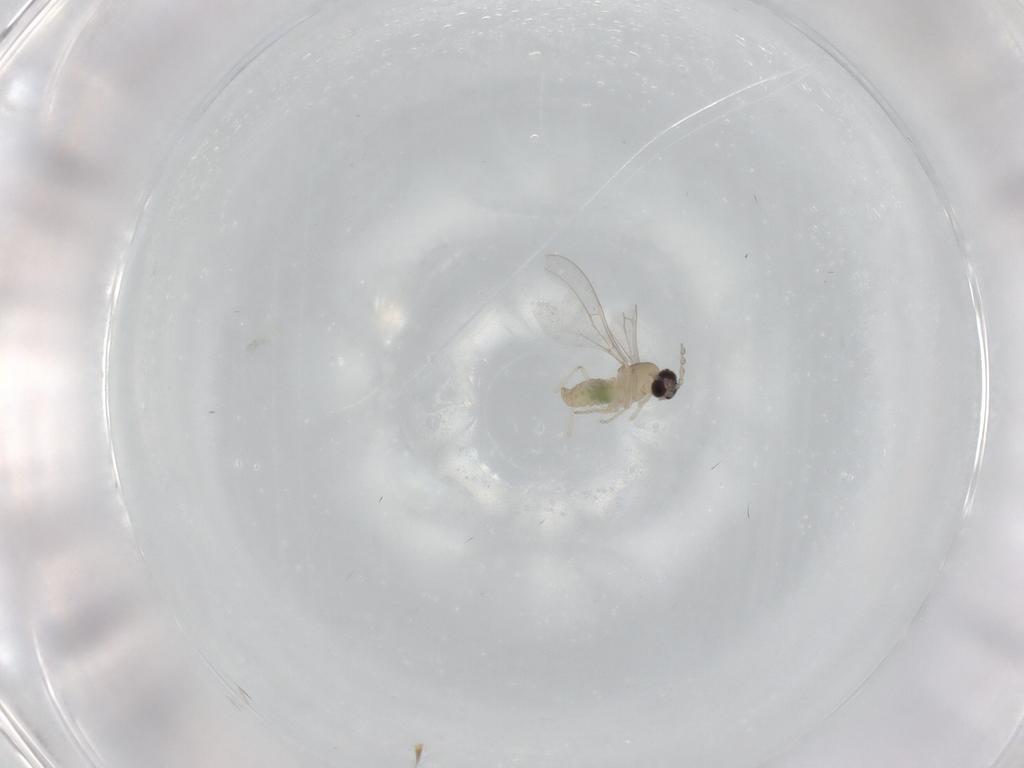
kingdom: Animalia
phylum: Arthropoda
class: Insecta
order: Diptera
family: Cecidomyiidae
